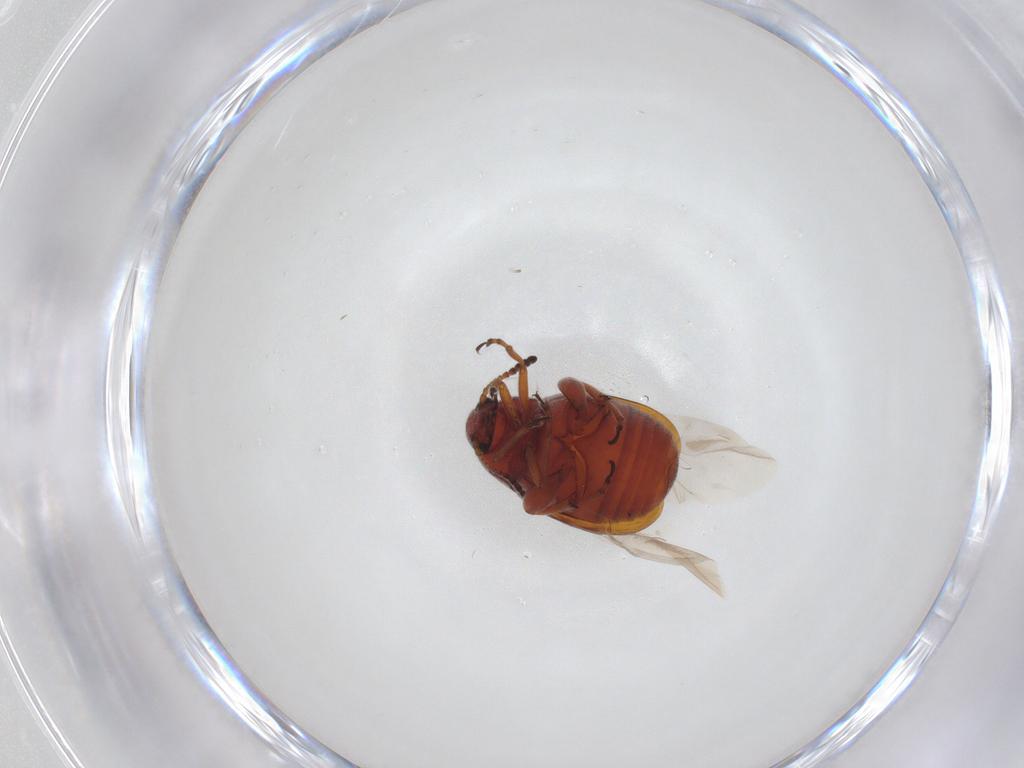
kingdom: Animalia
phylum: Arthropoda
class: Insecta
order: Coleoptera
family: Chrysomelidae
